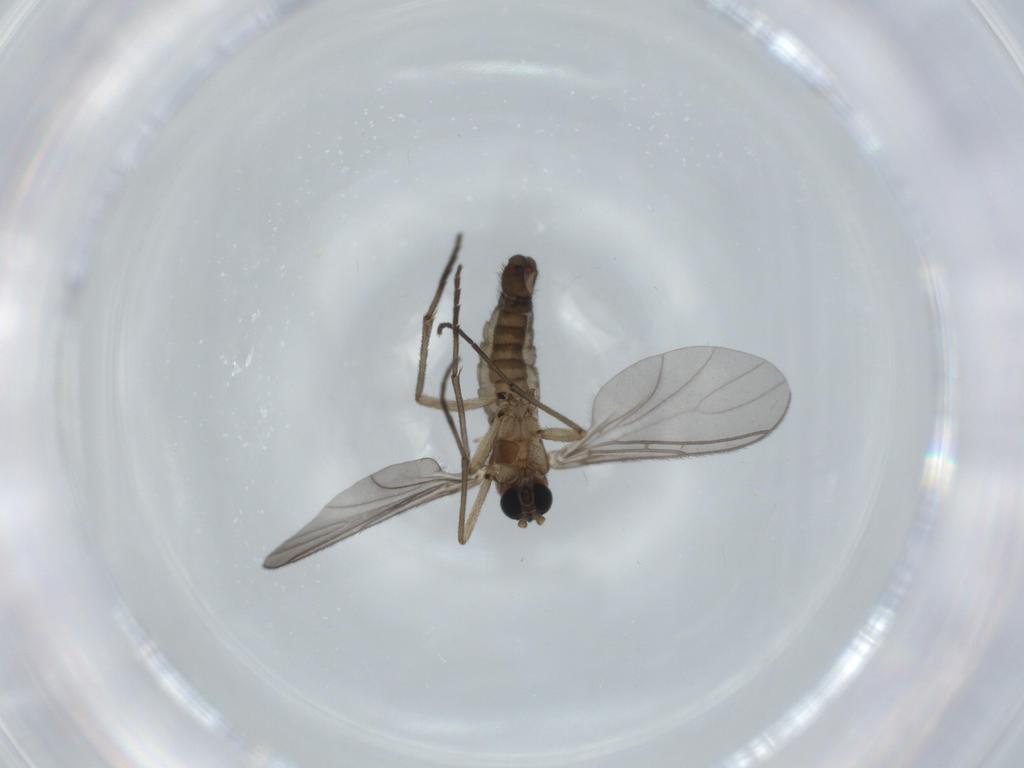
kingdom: Animalia
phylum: Arthropoda
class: Insecta
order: Diptera
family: Sciaridae
